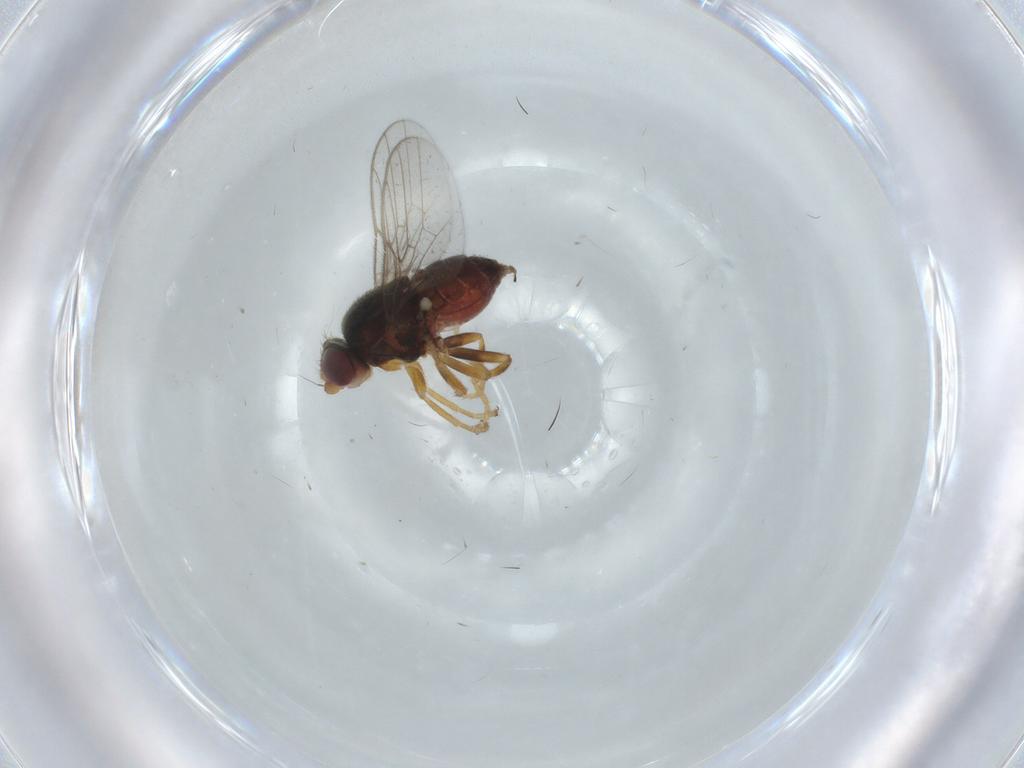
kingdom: Animalia
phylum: Arthropoda
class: Insecta
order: Diptera
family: Chloropidae
